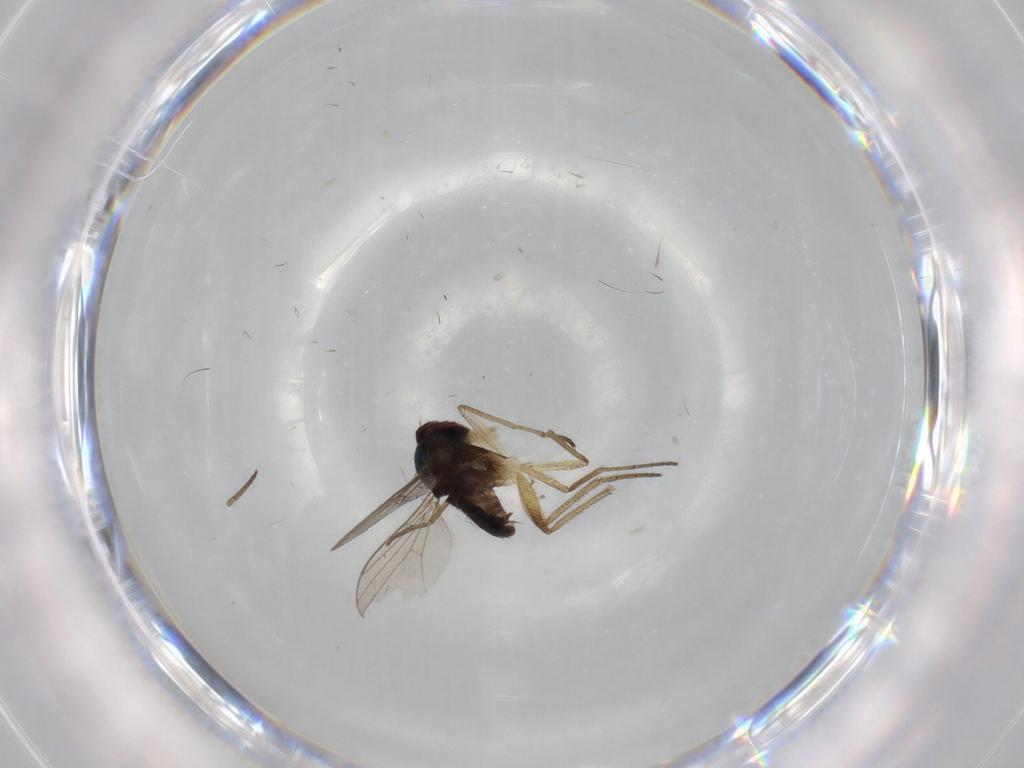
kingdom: Animalia
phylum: Arthropoda
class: Insecta
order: Diptera
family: Dolichopodidae
